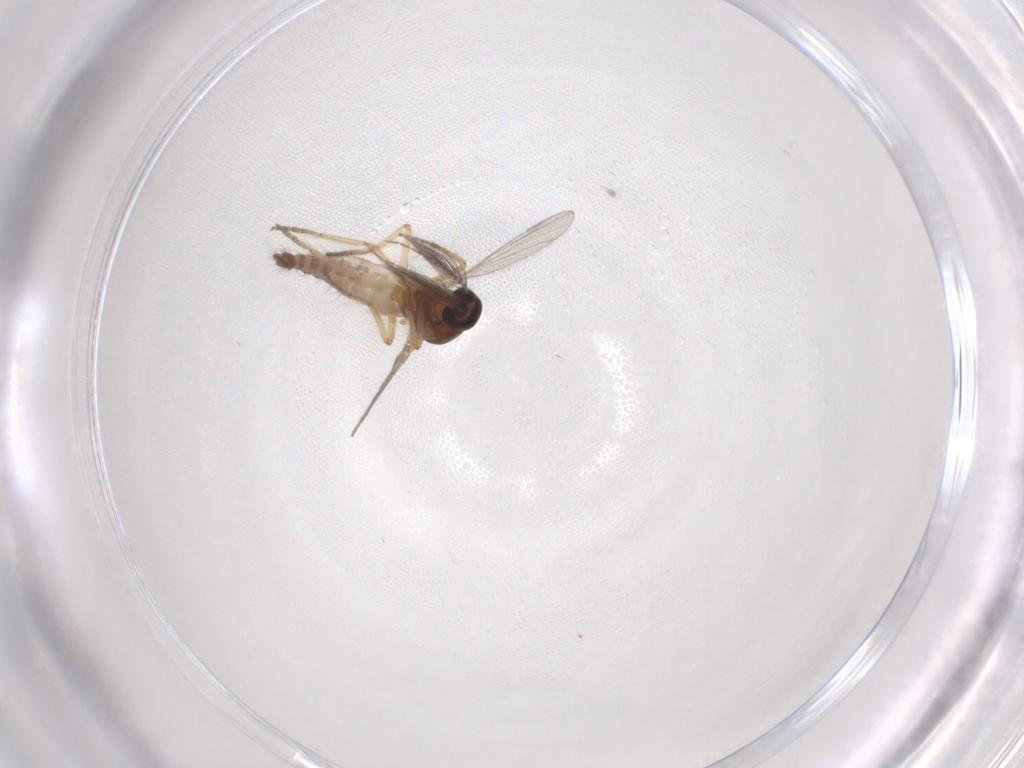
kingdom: Animalia
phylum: Arthropoda
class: Insecta
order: Diptera
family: Ceratopogonidae
